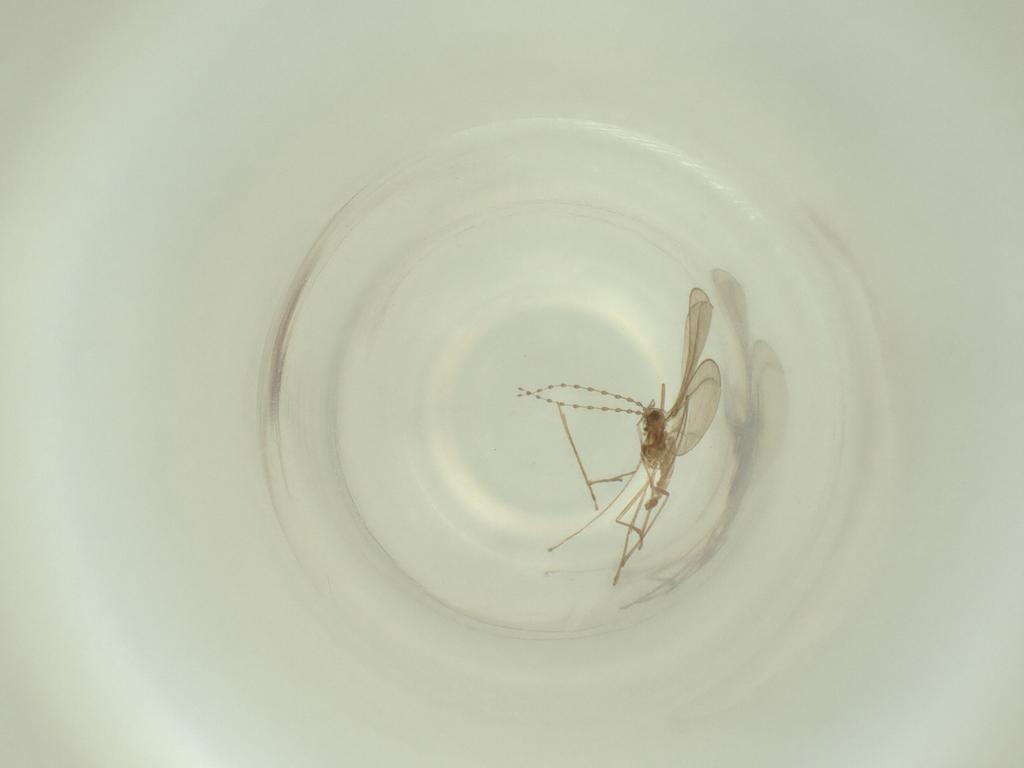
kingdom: Animalia
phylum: Arthropoda
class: Insecta
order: Diptera
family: Cecidomyiidae
